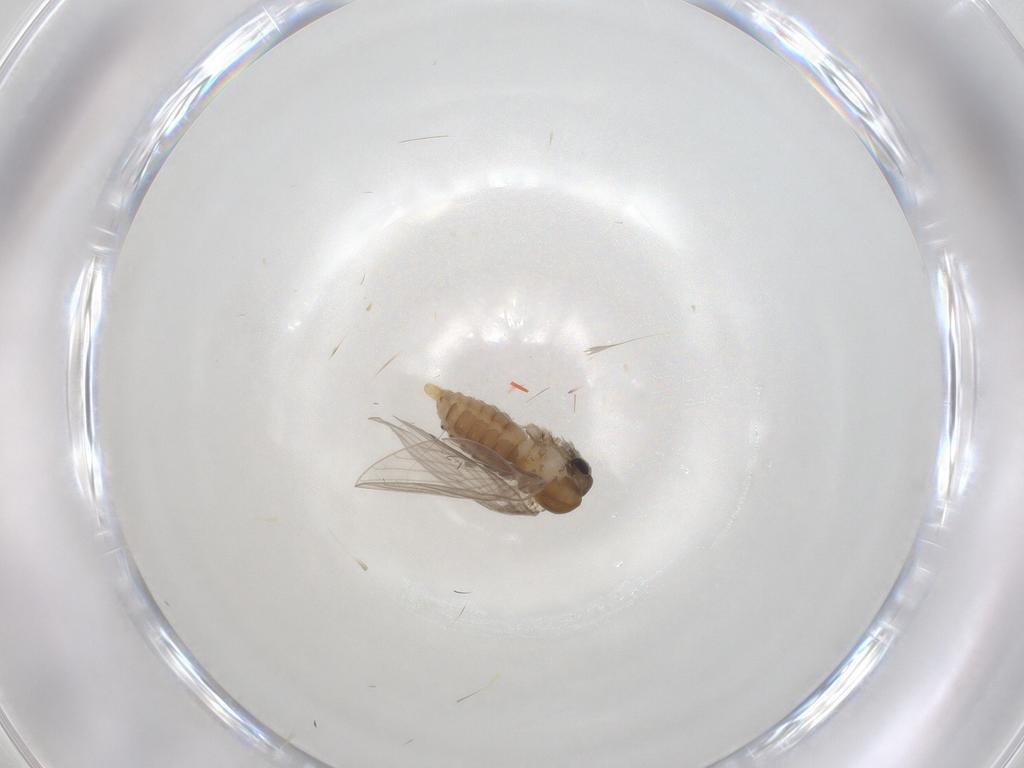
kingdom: Animalia
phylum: Arthropoda
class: Insecta
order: Diptera
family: Psychodidae
